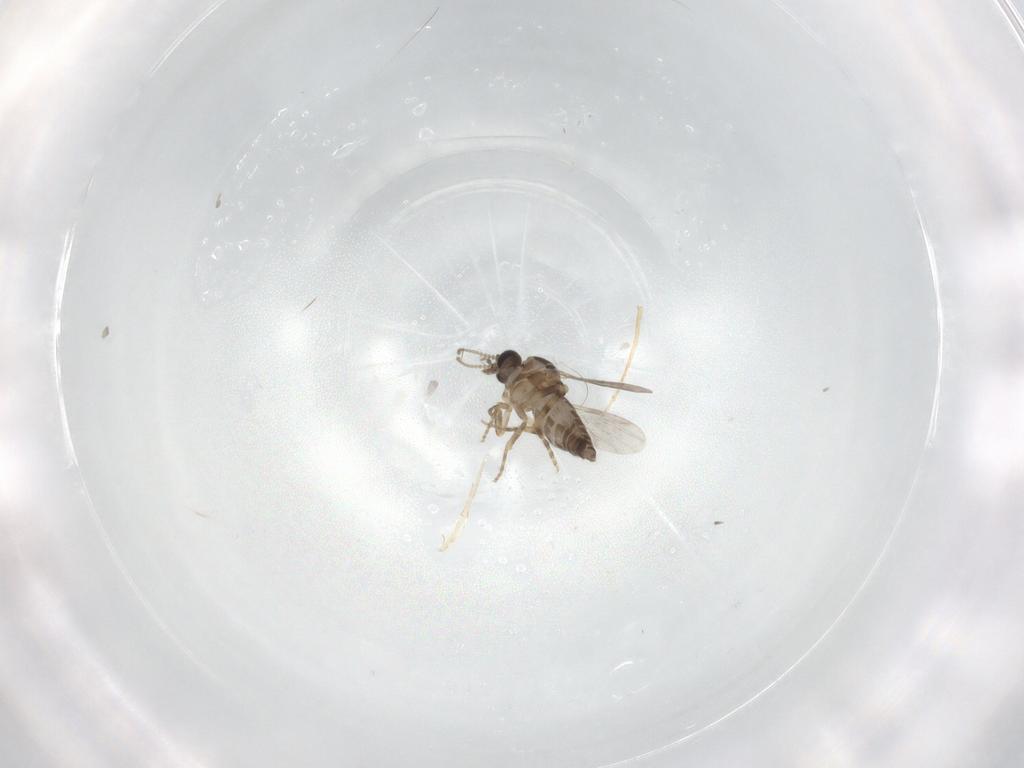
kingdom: Animalia
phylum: Arthropoda
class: Insecta
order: Diptera
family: Ceratopogonidae
